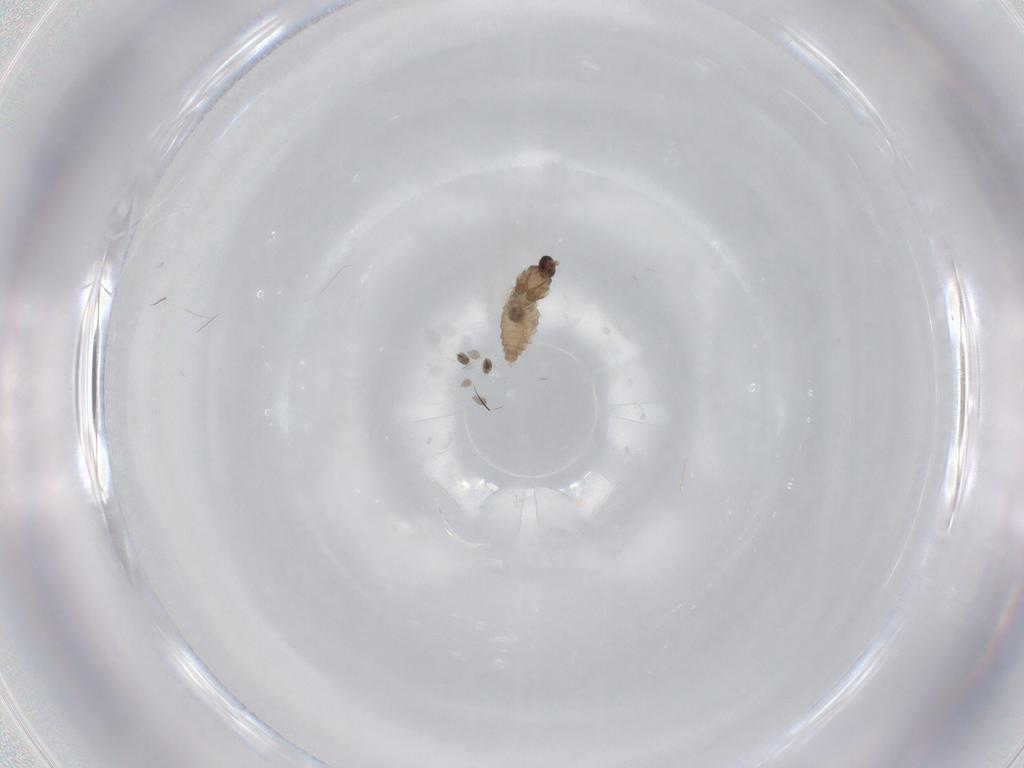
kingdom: Animalia
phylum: Arthropoda
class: Insecta
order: Diptera
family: Cecidomyiidae
